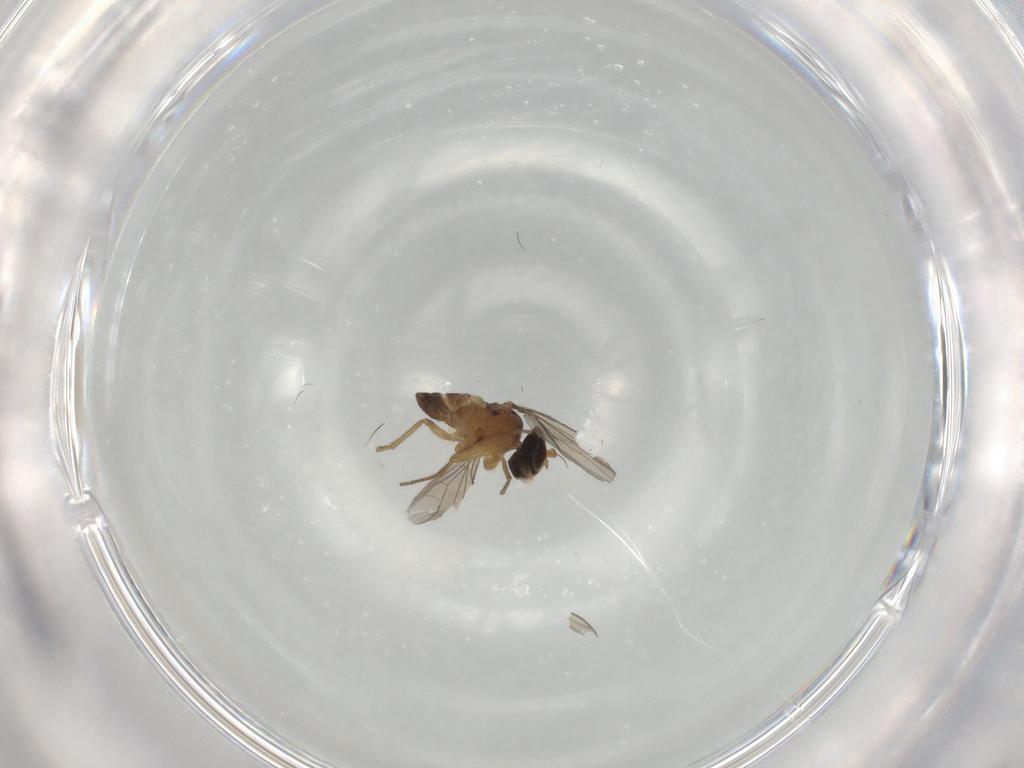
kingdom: Animalia
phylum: Arthropoda
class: Insecta
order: Diptera
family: Dolichopodidae
